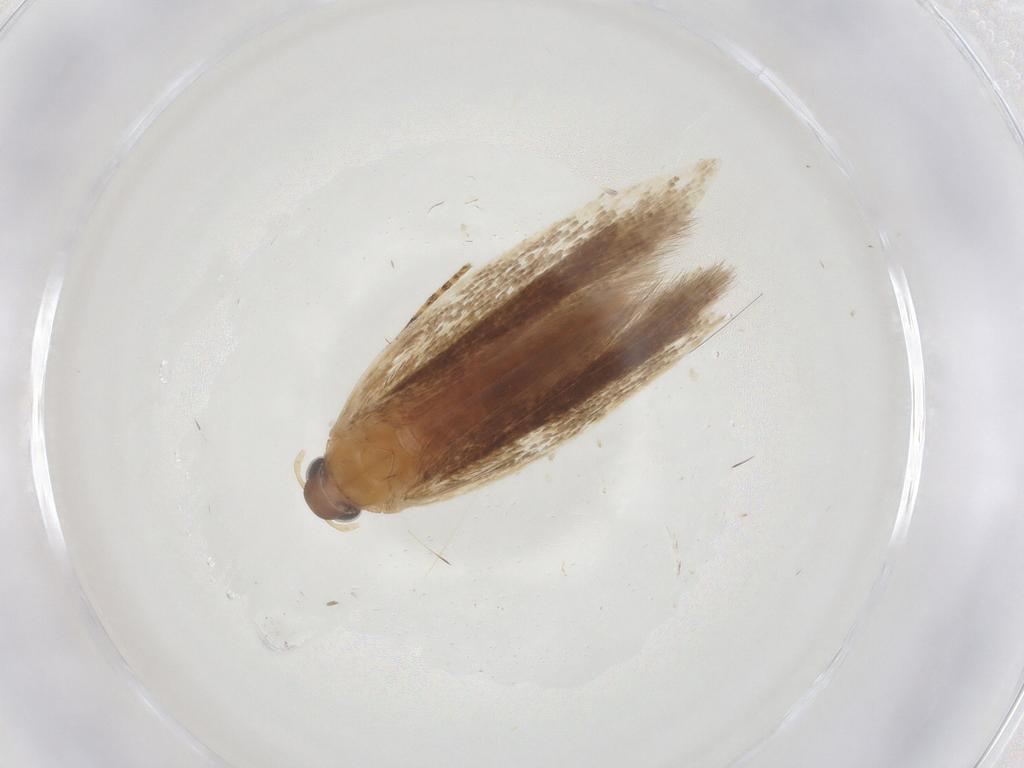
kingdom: Animalia
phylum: Arthropoda
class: Insecta
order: Lepidoptera
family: Gelechiidae
